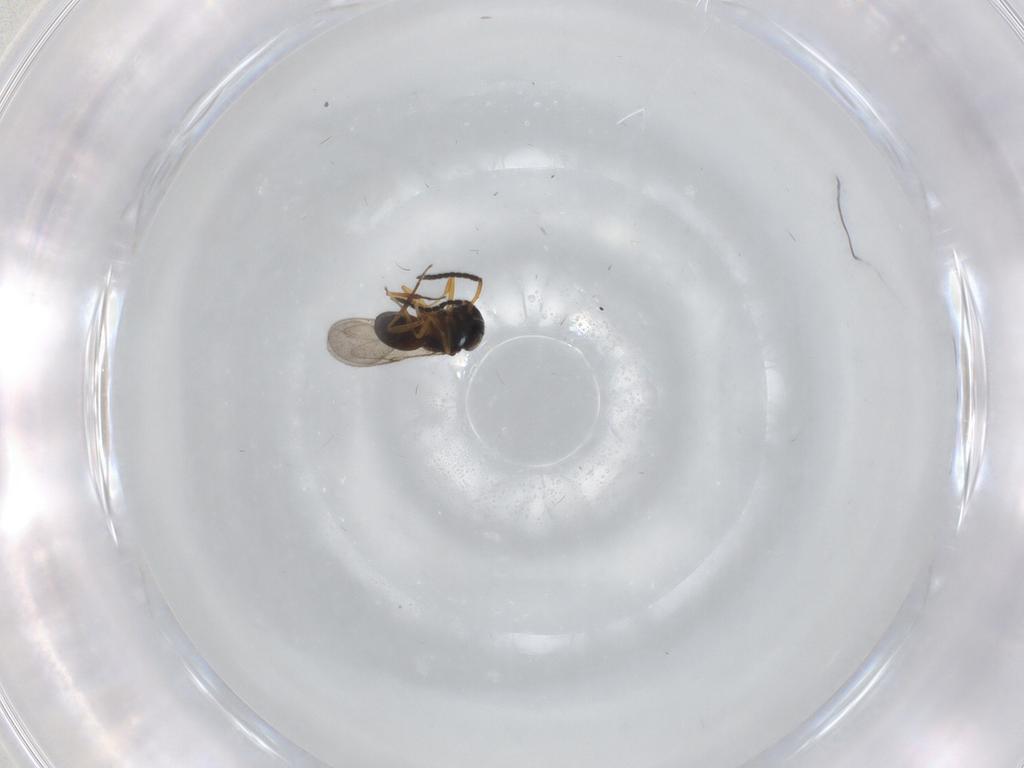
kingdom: Animalia
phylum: Arthropoda
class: Insecta
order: Hymenoptera
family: Scelionidae
